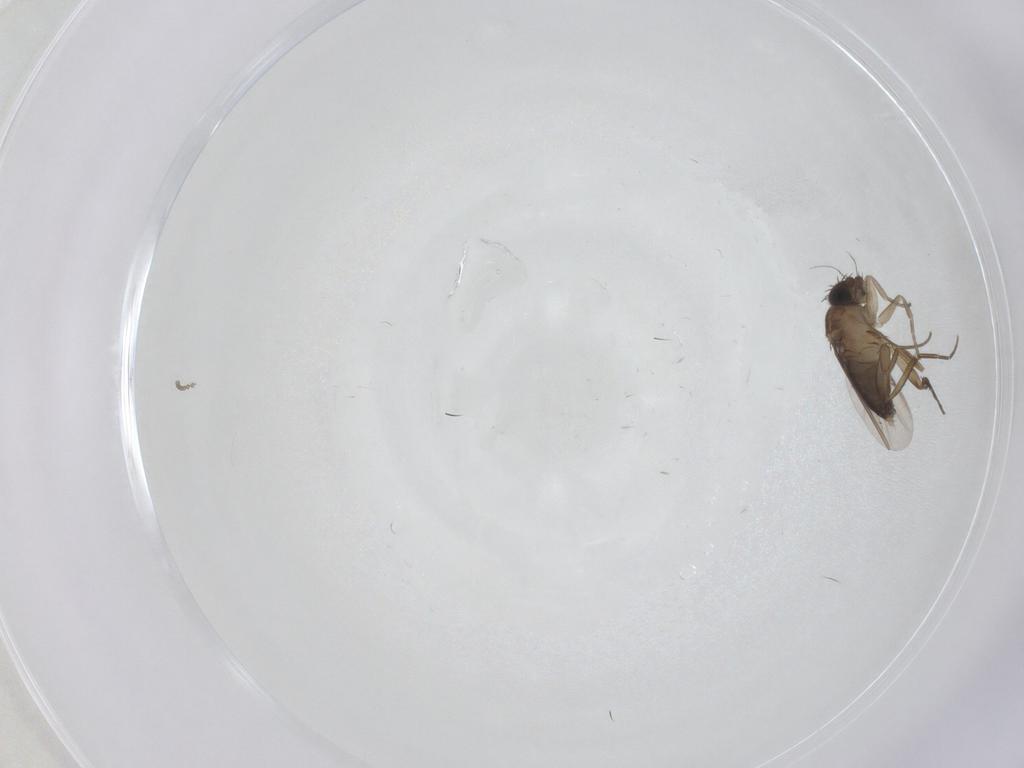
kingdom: Animalia
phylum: Arthropoda
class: Insecta
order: Diptera
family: Phoridae
